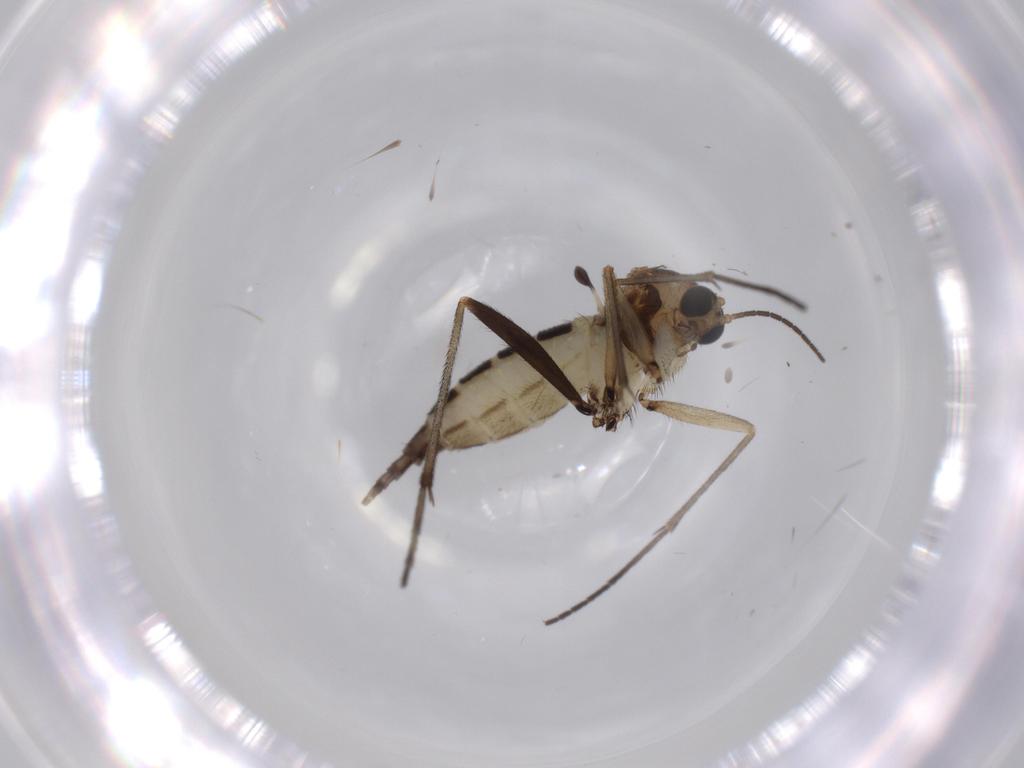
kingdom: Animalia
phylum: Arthropoda
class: Insecta
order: Diptera
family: Sciaridae
